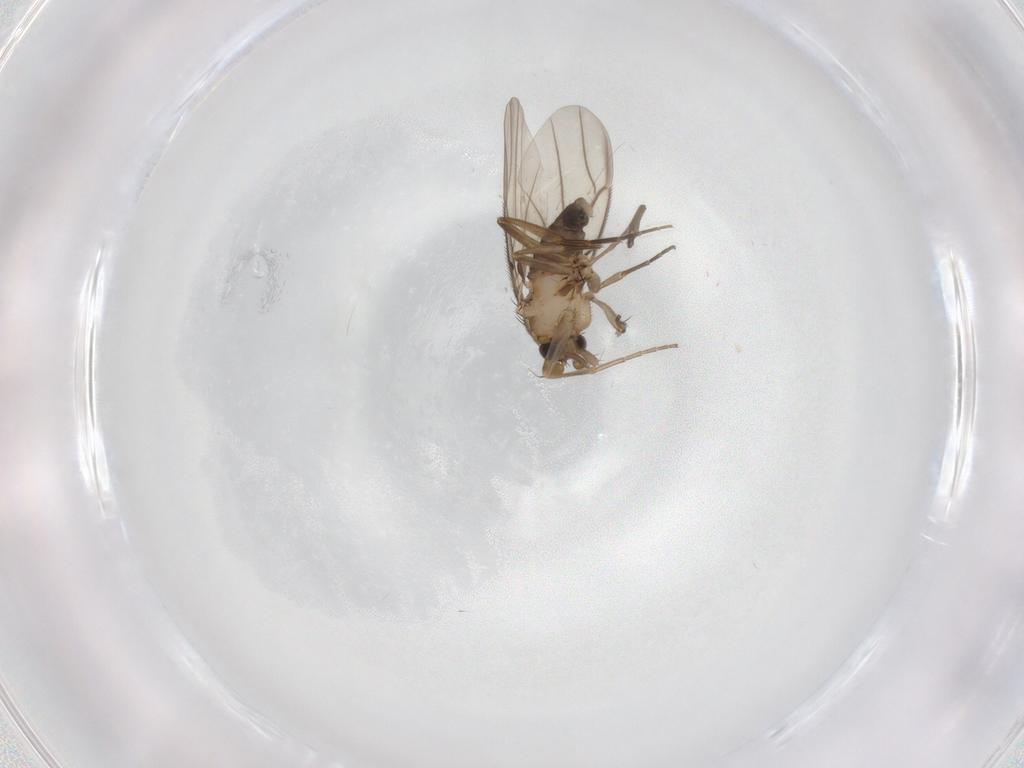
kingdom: Animalia
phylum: Arthropoda
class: Insecta
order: Diptera
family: Phoridae
